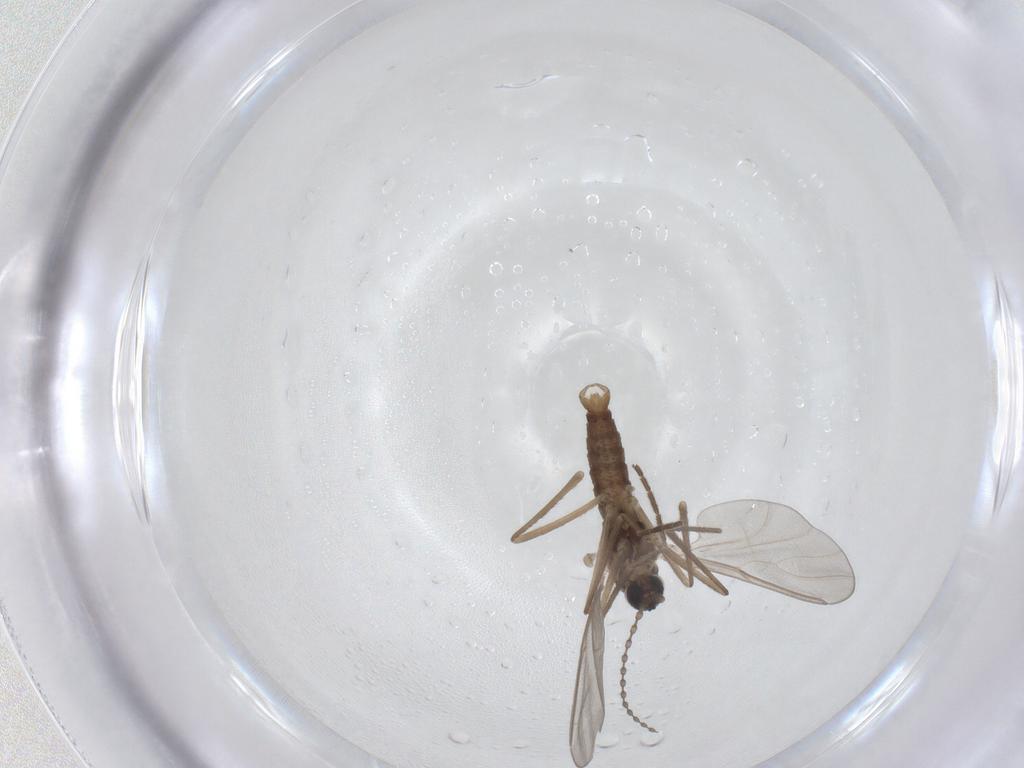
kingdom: Animalia
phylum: Arthropoda
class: Insecta
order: Diptera
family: Cecidomyiidae
